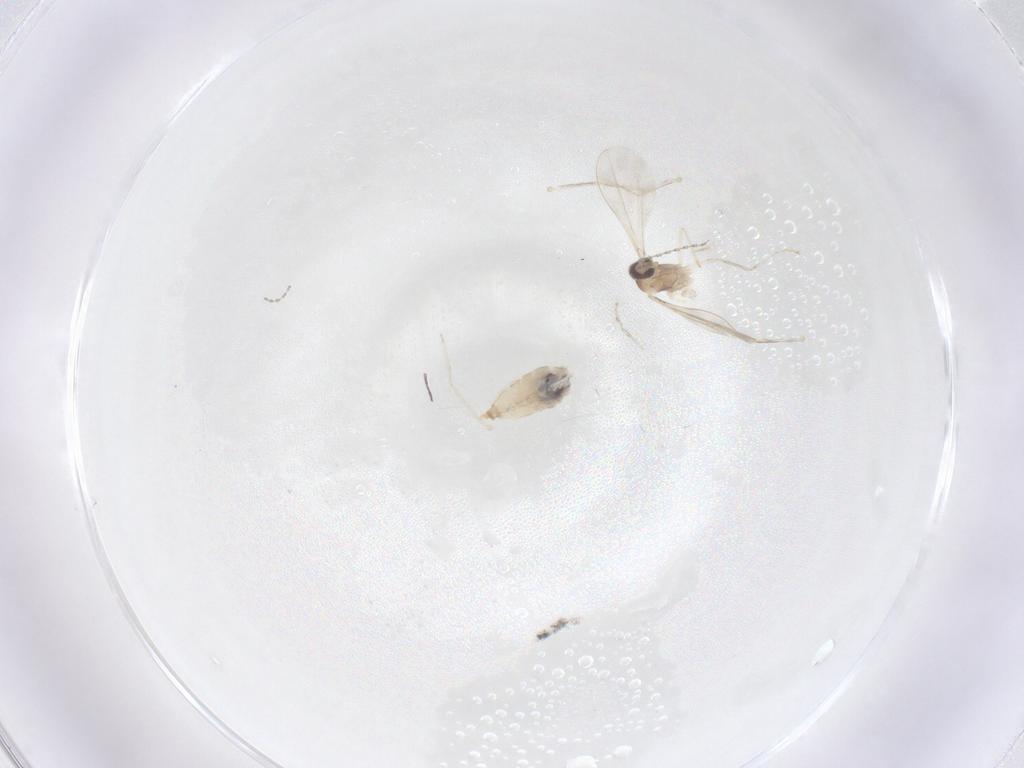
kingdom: Animalia
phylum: Arthropoda
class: Insecta
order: Diptera
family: Cecidomyiidae
